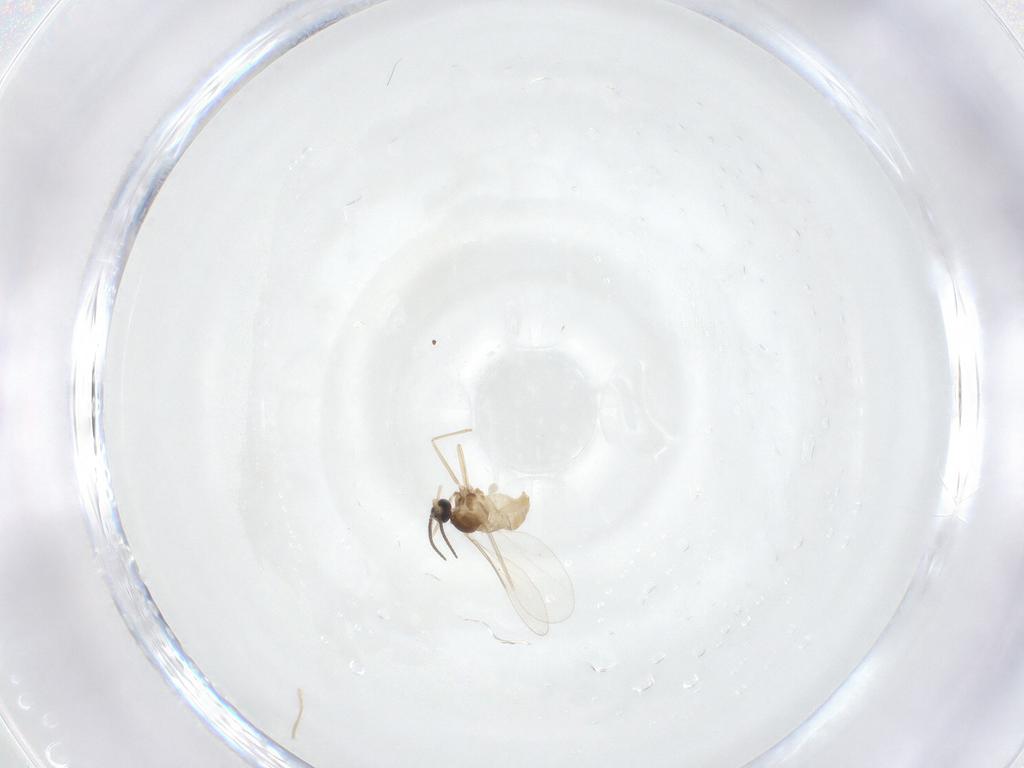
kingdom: Animalia
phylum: Arthropoda
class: Insecta
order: Diptera
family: Cecidomyiidae
